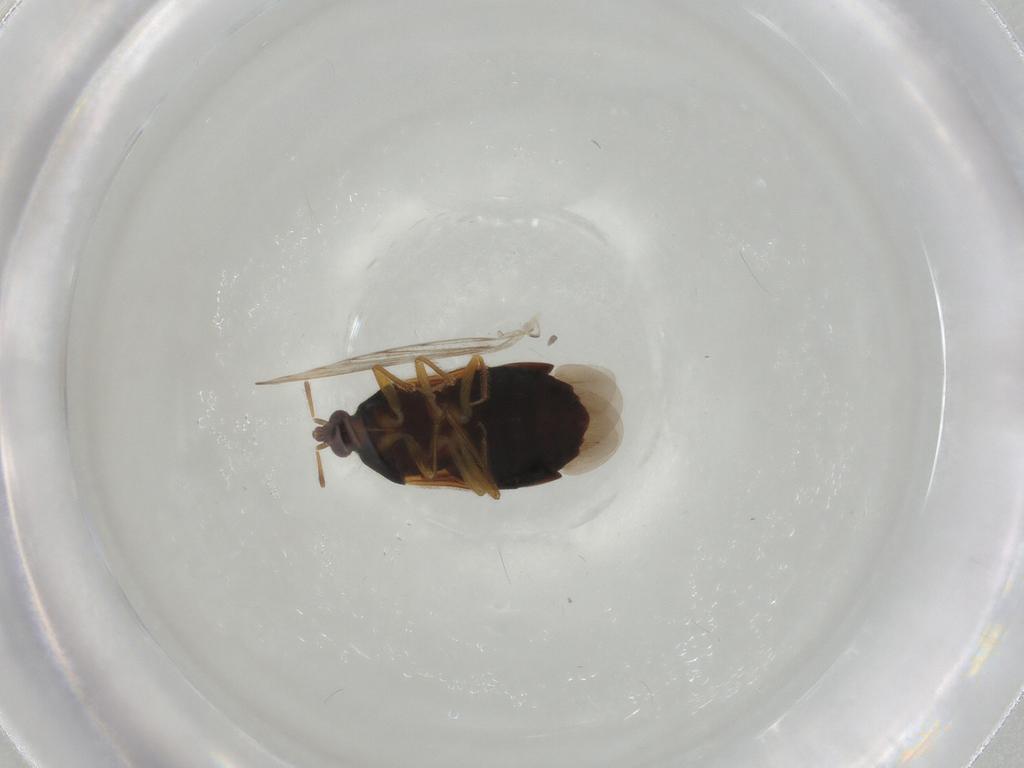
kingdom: Animalia
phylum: Arthropoda
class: Insecta
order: Hemiptera
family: Anthocoridae
